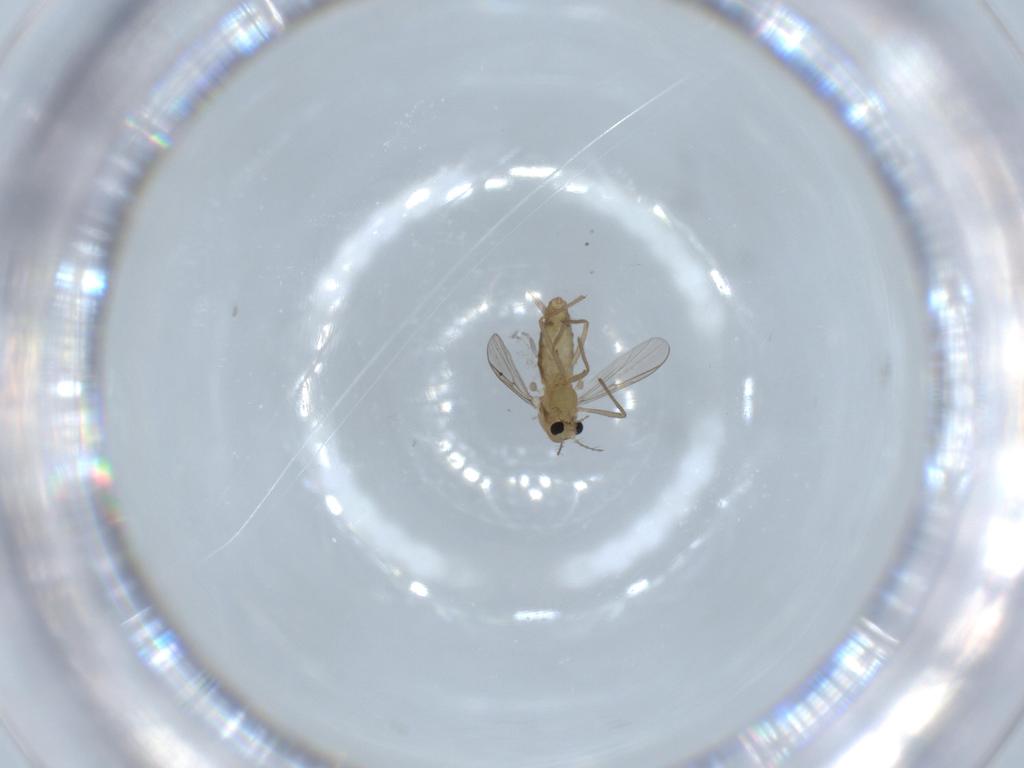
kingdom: Animalia
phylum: Arthropoda
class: Insecta
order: Diptera
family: Chironomidae
